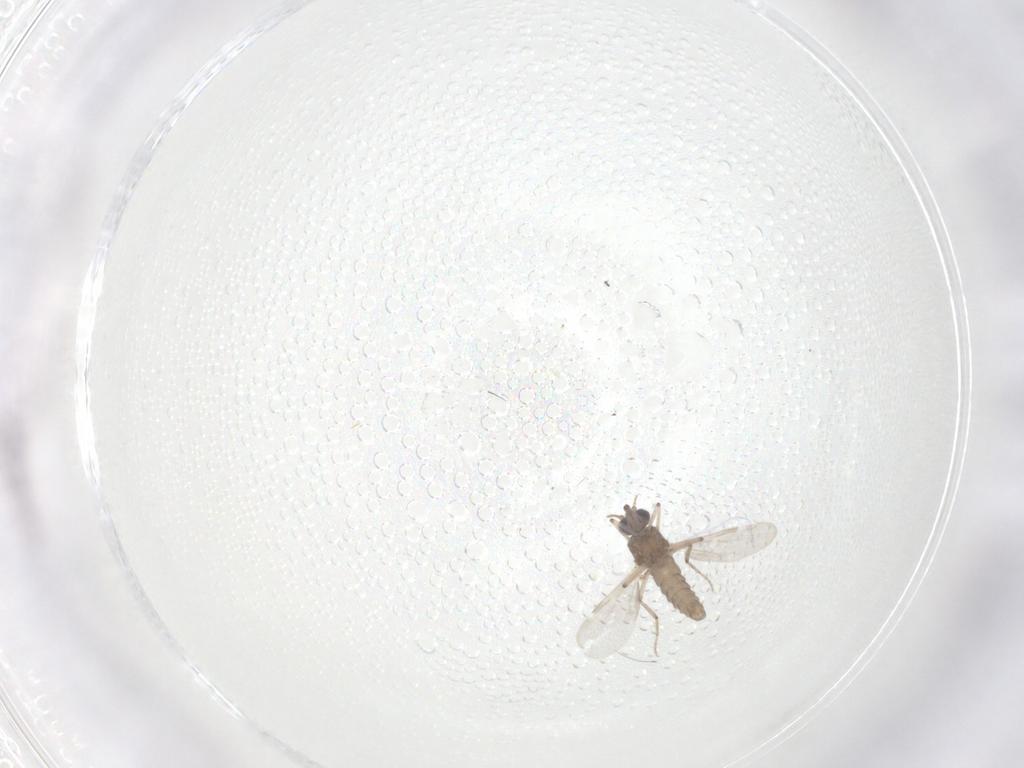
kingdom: Animalia
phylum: Arthropoda
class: Insecta
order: Diptera
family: Ceratopogonidae
